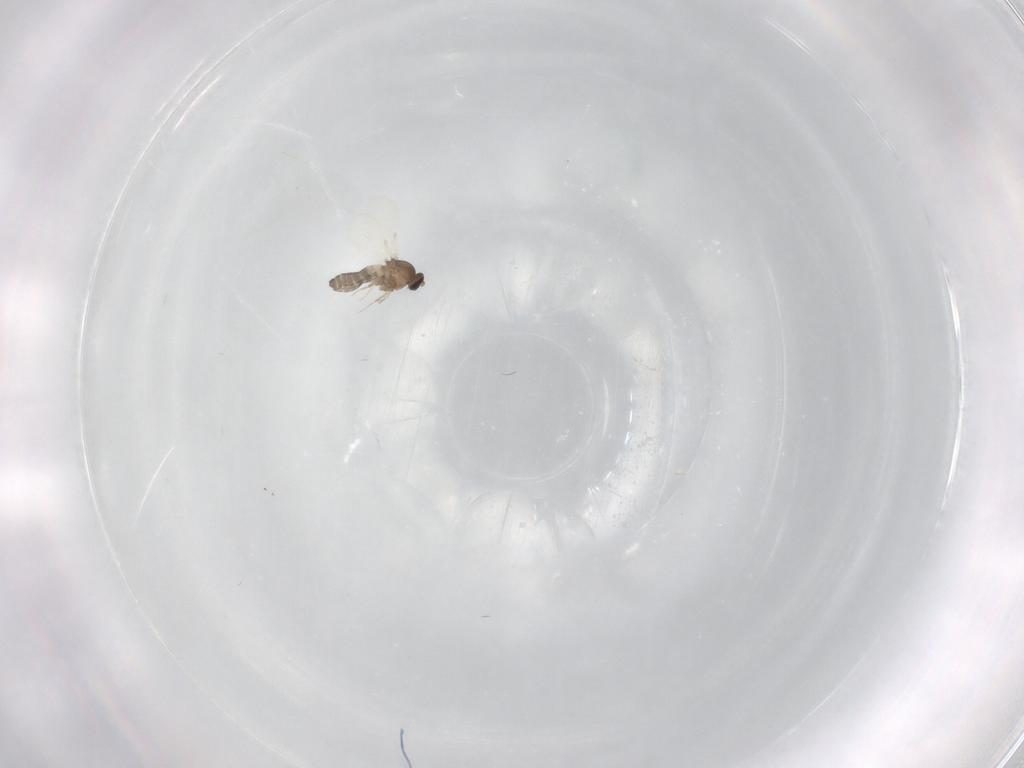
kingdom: Animalia
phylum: Arthropoda
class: Insecta
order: Diptera
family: Ceratopogonidae
